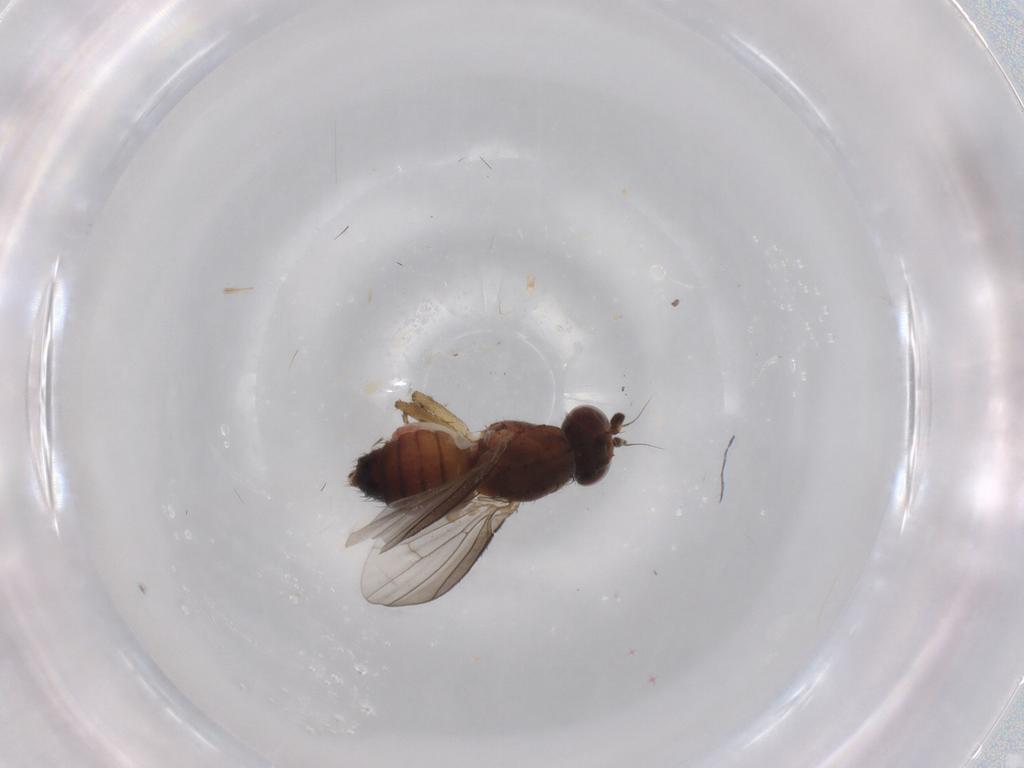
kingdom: Animalia
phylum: Arthropoda
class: Insecta
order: Diptera
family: Heleomyzidae
